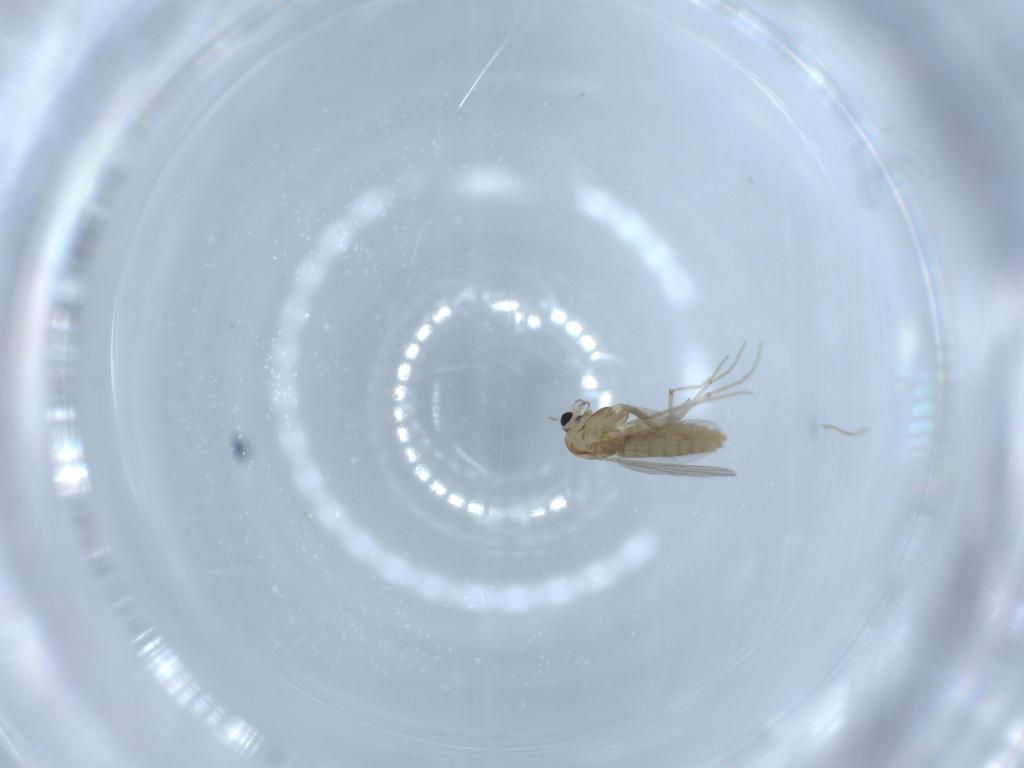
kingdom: Animalia
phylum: Arthropoda
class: Insecta
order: Diptera
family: Chironomidae
